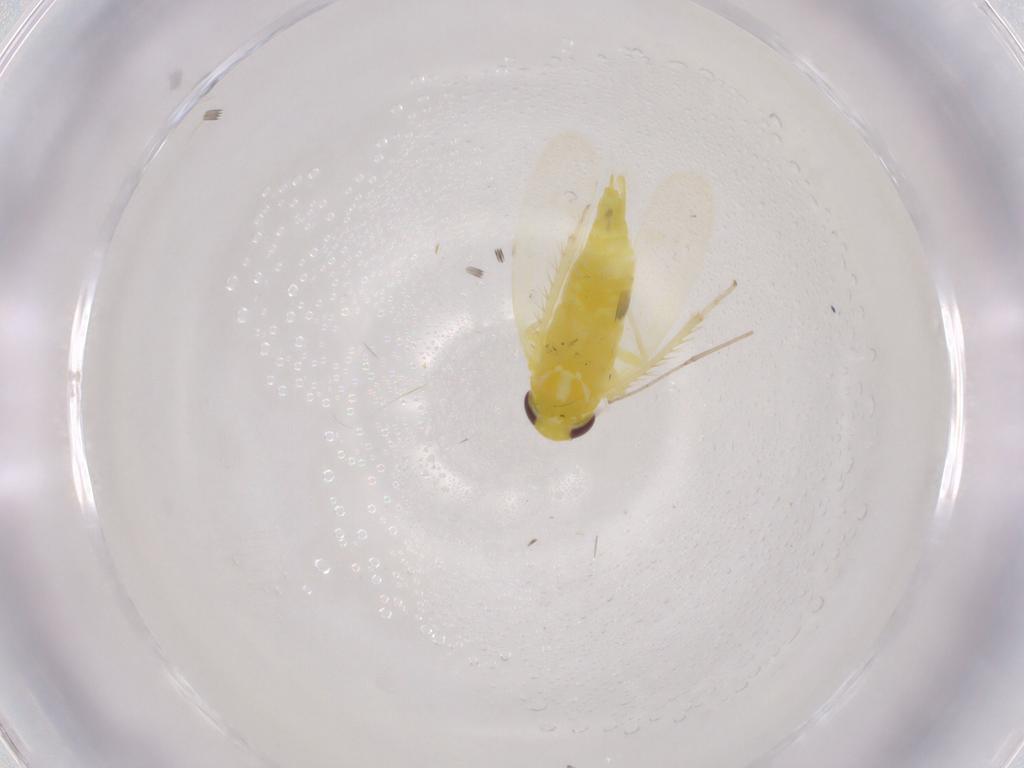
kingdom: Animalia
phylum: Arthropoda
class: Insecta
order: Hemiptera
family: Cicadellidae
